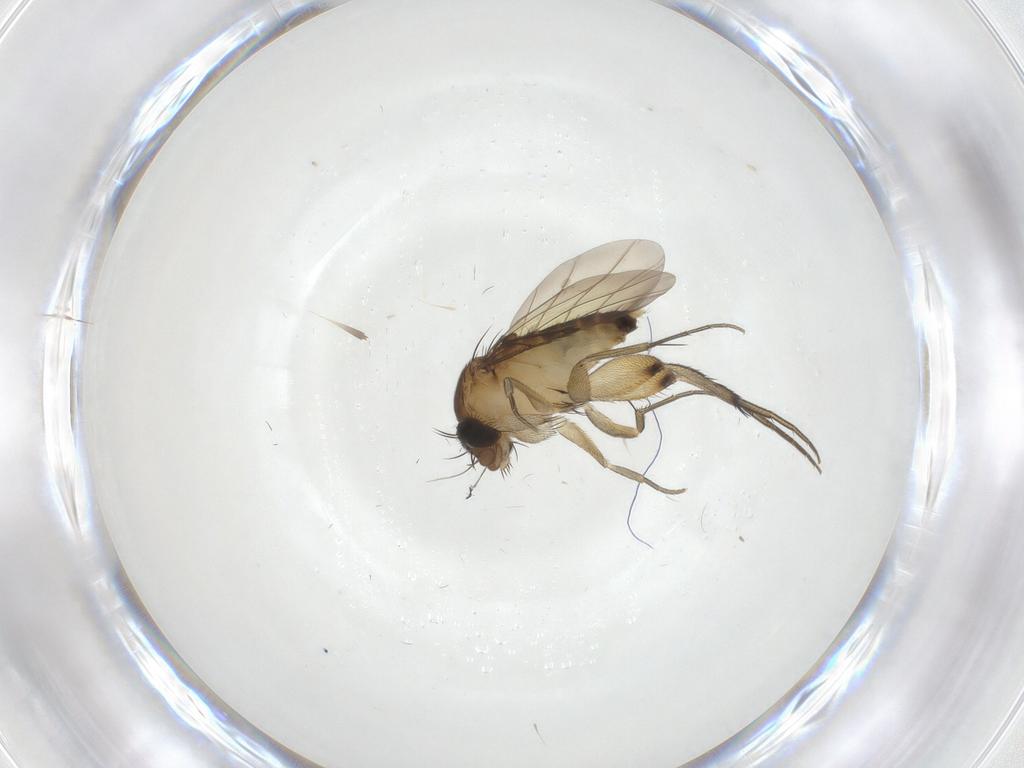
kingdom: Animalia
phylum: Arthropoda
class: Insecta
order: Diptera
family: Phoridae
